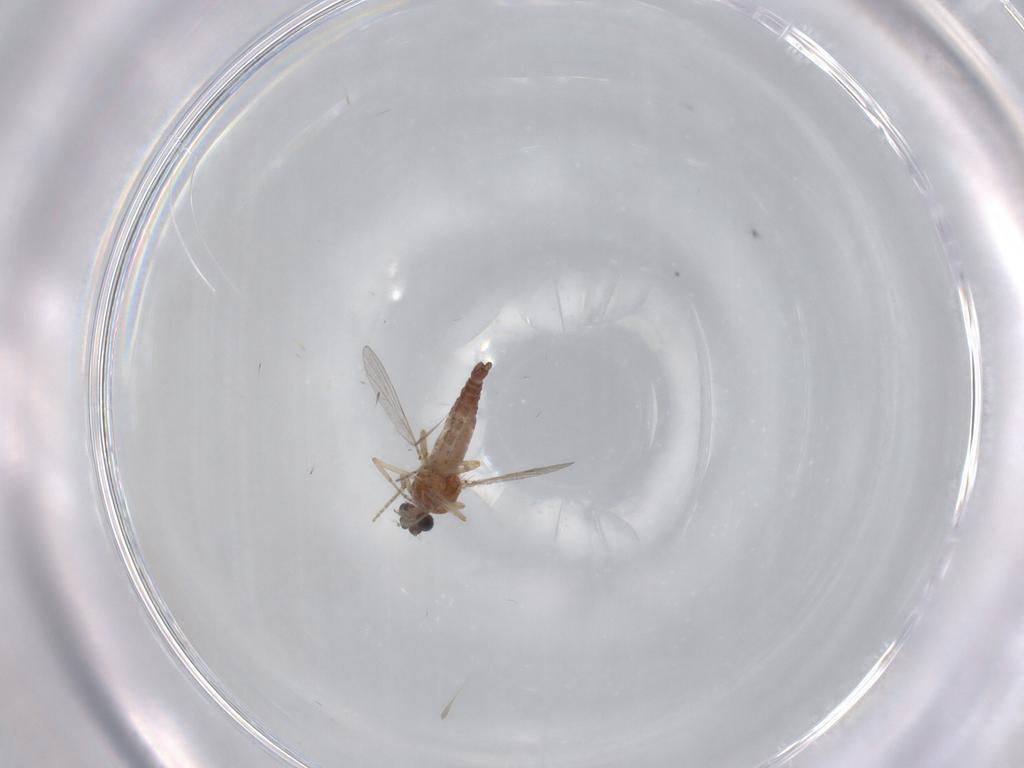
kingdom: Animalia
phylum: Arthropoda
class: Insecta
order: Diptera
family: Ceratopogonidae
